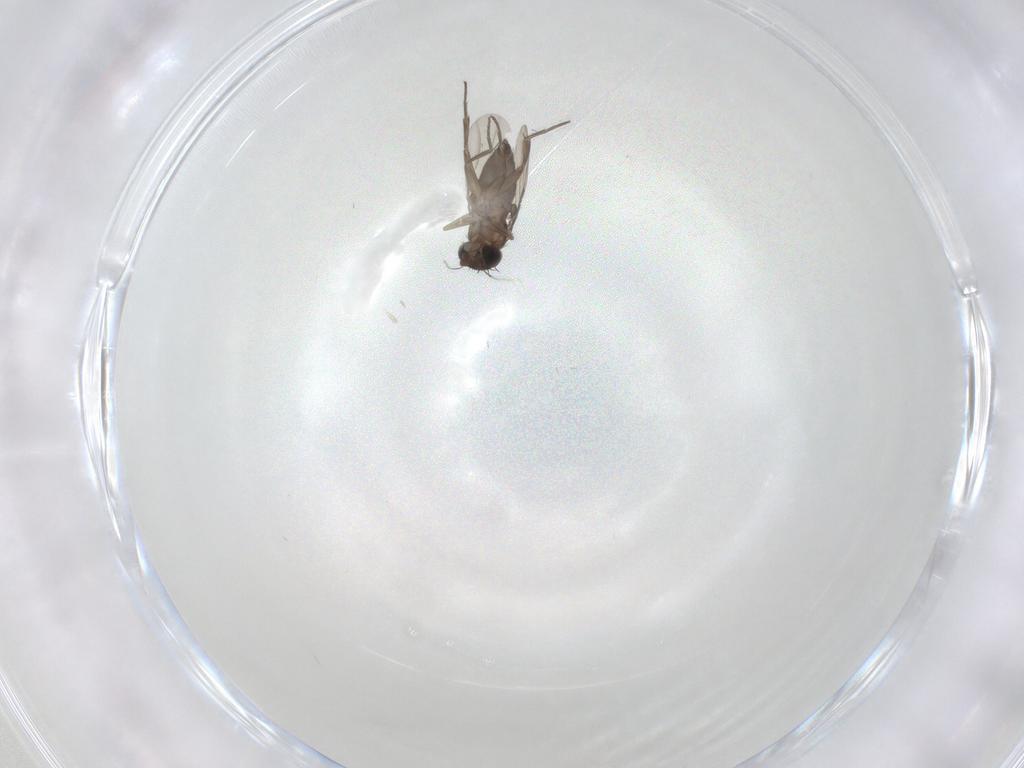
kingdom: Animalia
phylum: Arthropoda
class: Insecta
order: Diptera
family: Phoridae
